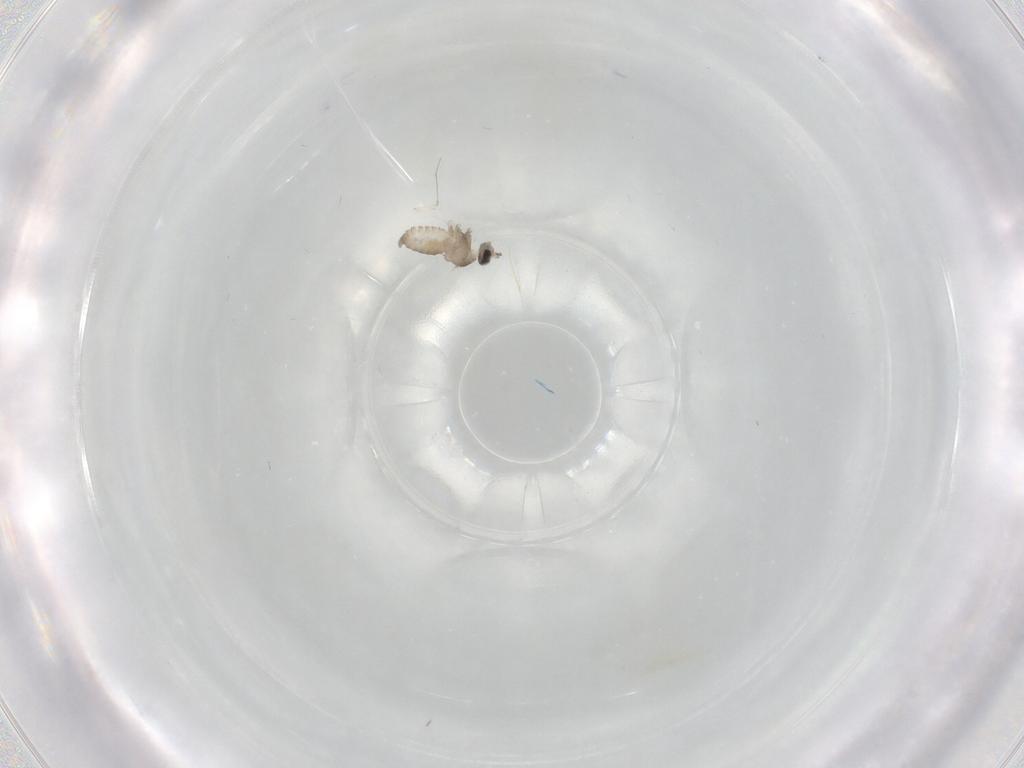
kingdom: Animalia
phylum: Arthropoda
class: Insecta
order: Diptera
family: Cecidomyiidae
